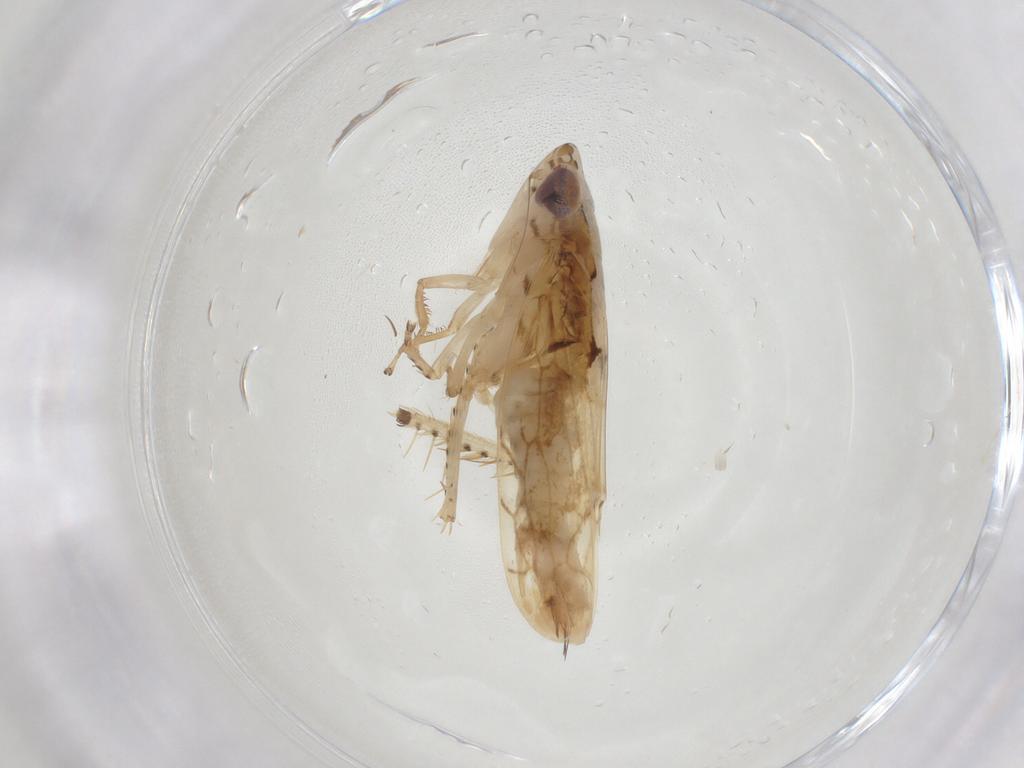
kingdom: Animalia
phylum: Arthropoda
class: Insecta
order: Hemiptera
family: Cicadellidae
